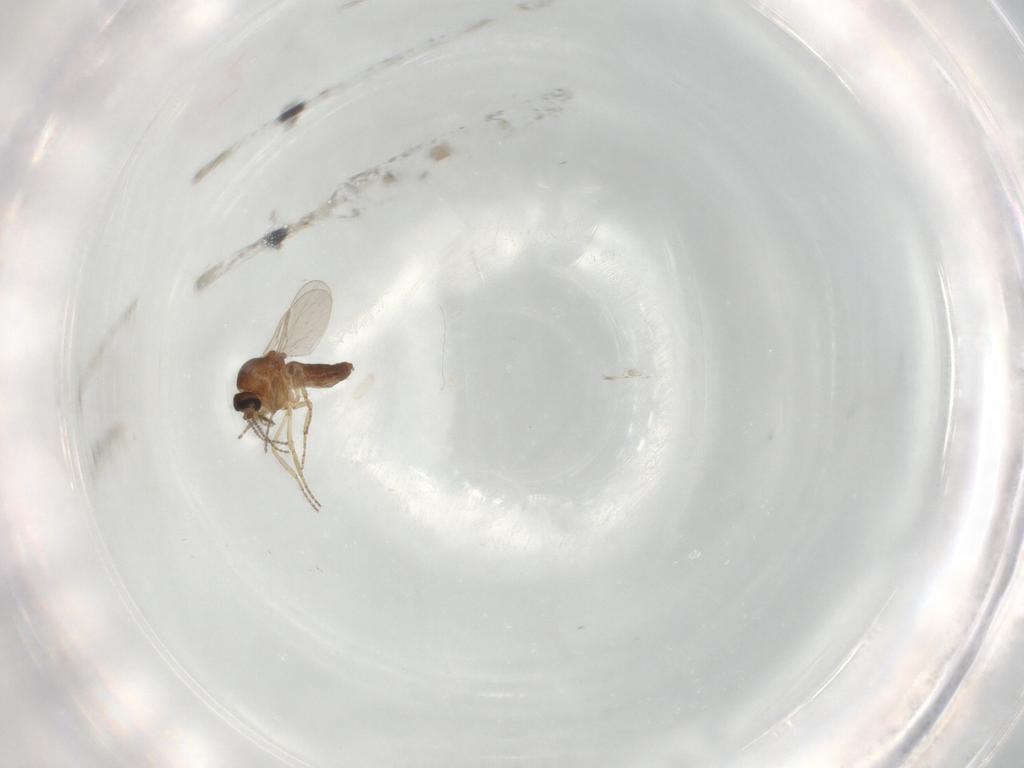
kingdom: Animalia
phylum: Arthropoda
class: Insecta
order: Diptera
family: Ceratopogonidae
